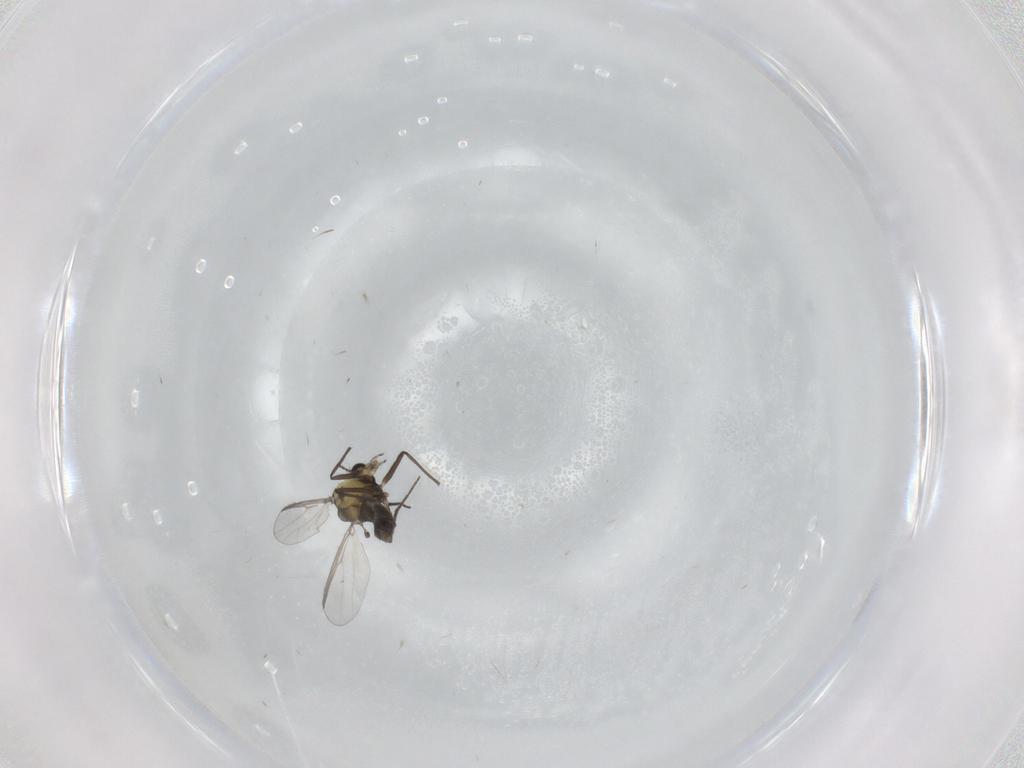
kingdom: Animalia
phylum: Arthropoda
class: Insecta
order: Diptera
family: Chironomidae
